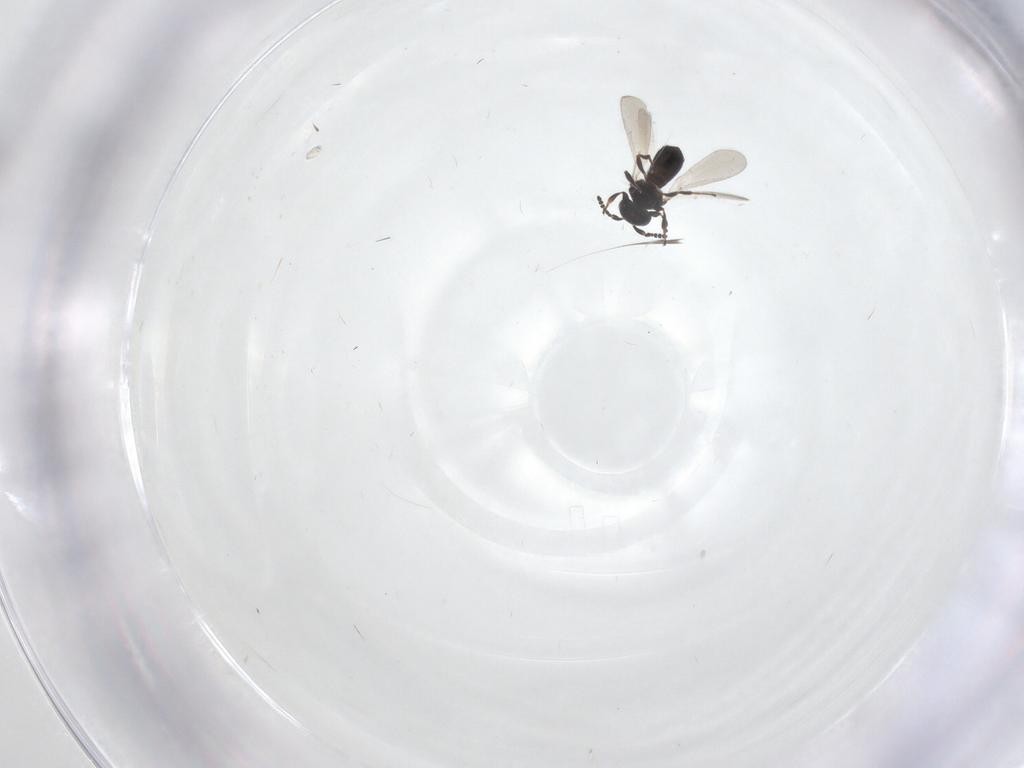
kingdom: Animalia
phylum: Arthropoda
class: Insecta
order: Hymenoptera
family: Platygastridae
